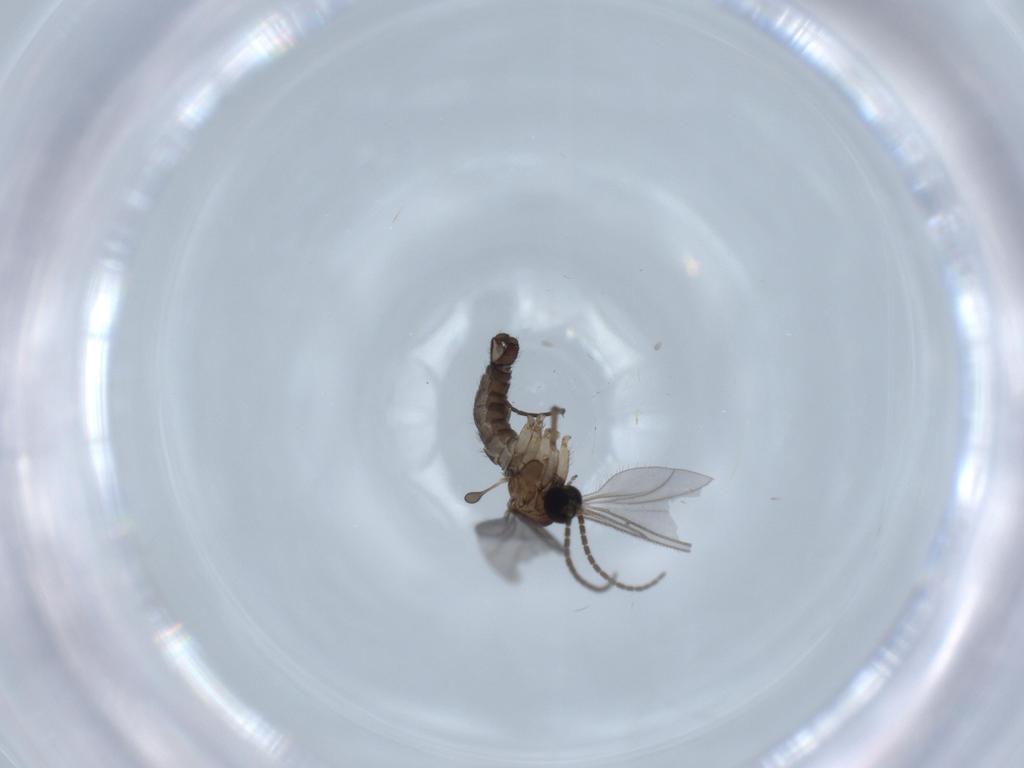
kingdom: Animalia
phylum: Arthropoda
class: Insecta
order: Diptera
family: Sciaridae
